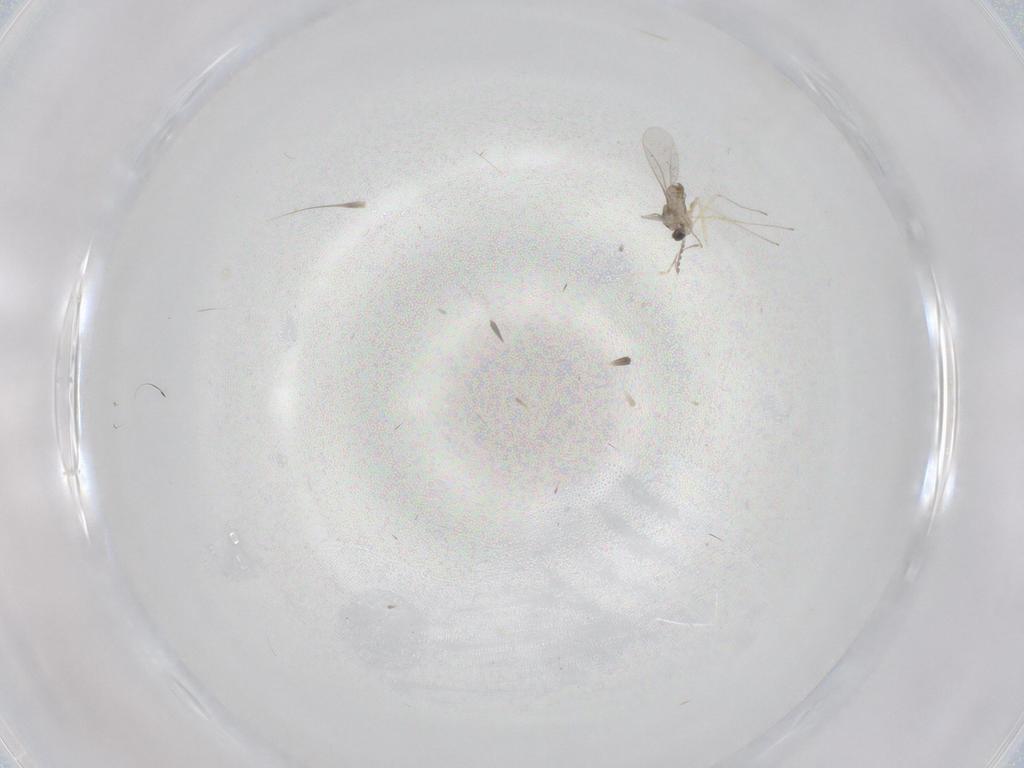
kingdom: Animalia
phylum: Arthropoda
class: Insecta
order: Diptera
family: Cecidomyiidae
